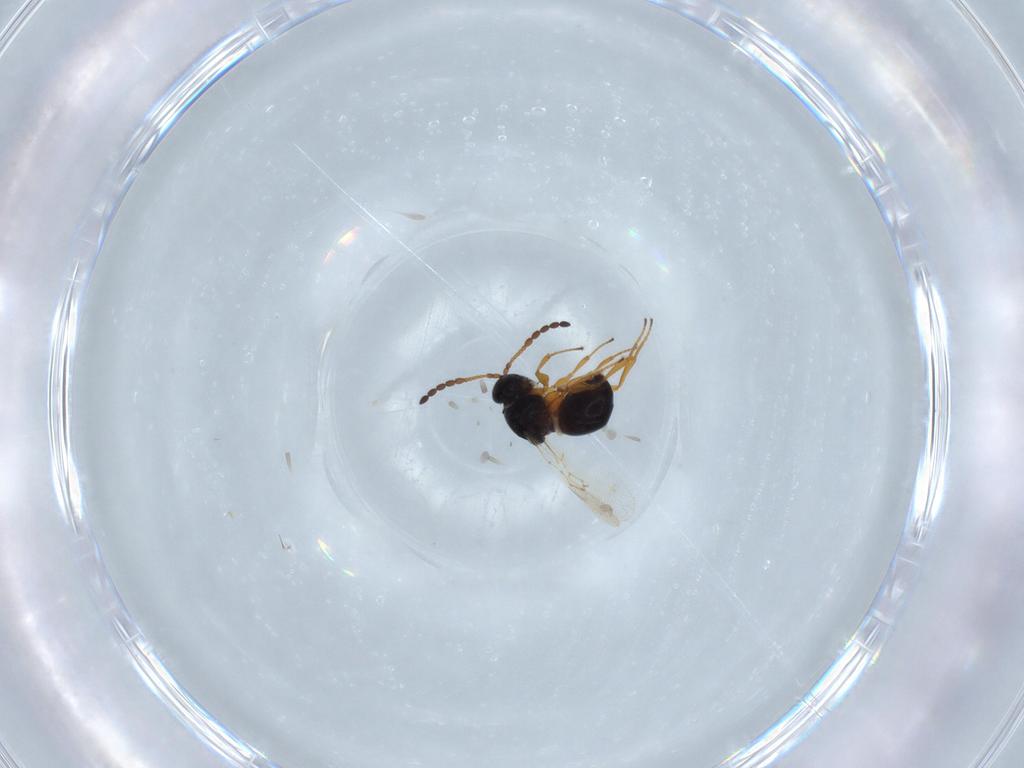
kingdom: Animalia
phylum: Arthropoda
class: Insecta
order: Hymenoptera
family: Figitidae
